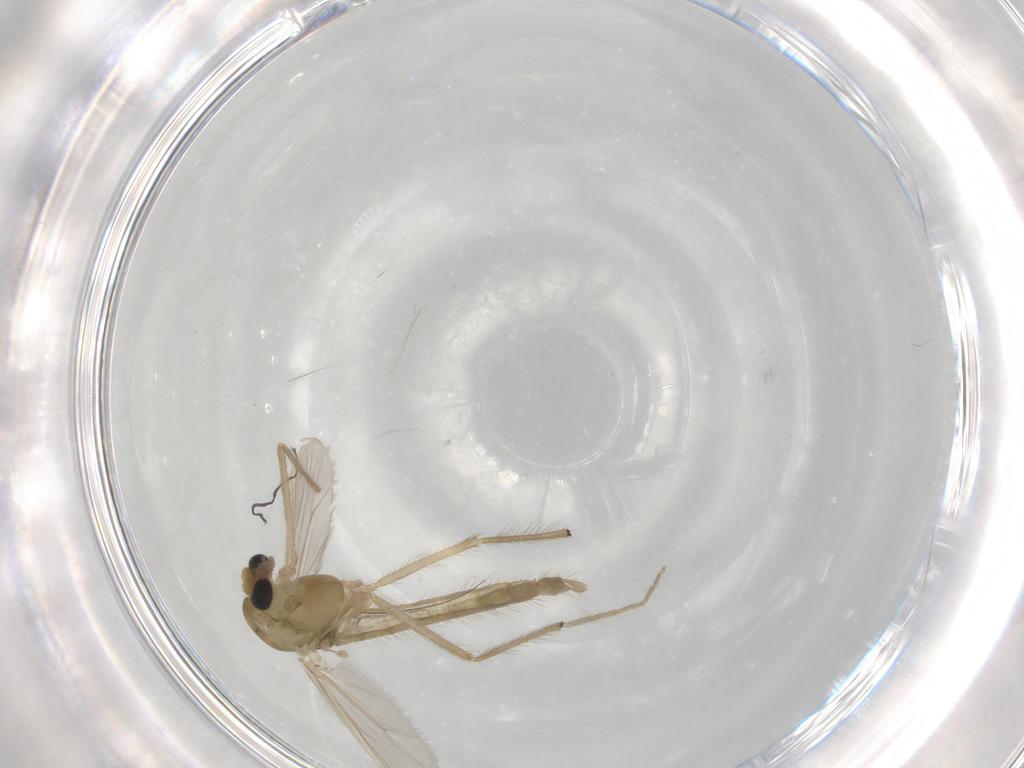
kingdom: Animalia
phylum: Arthropoda
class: Insecta
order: Diptera
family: Chironomidae
